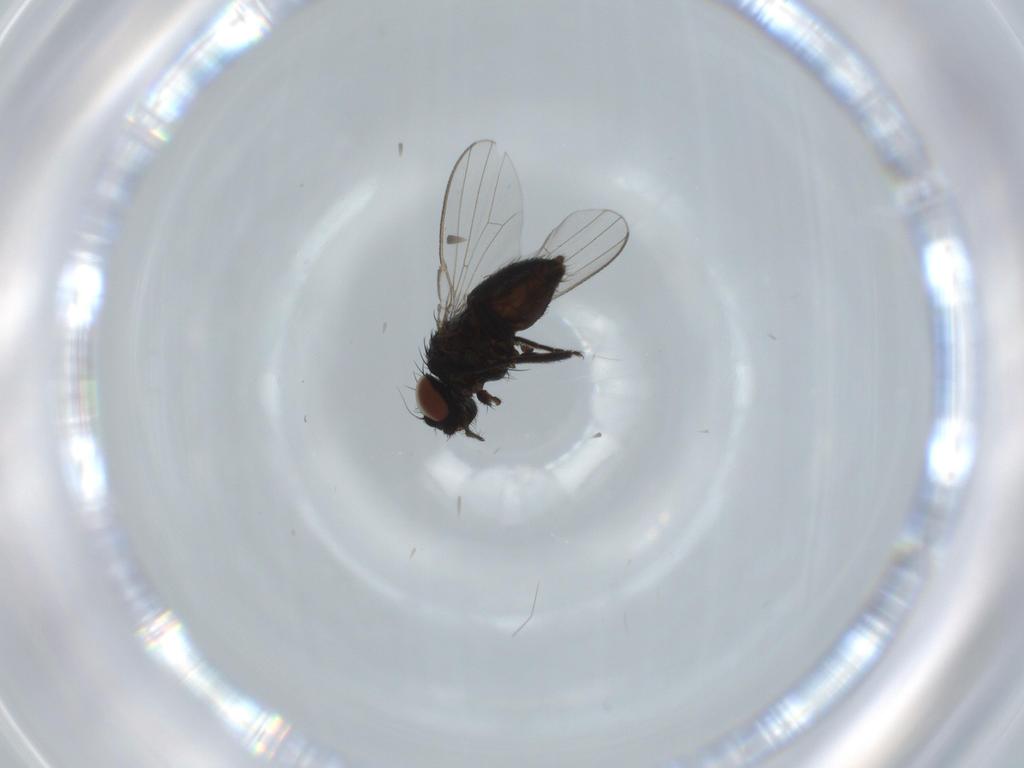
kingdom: Animalia
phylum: Arthropoda
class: Insecta
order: Diptera
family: Milichiidae
